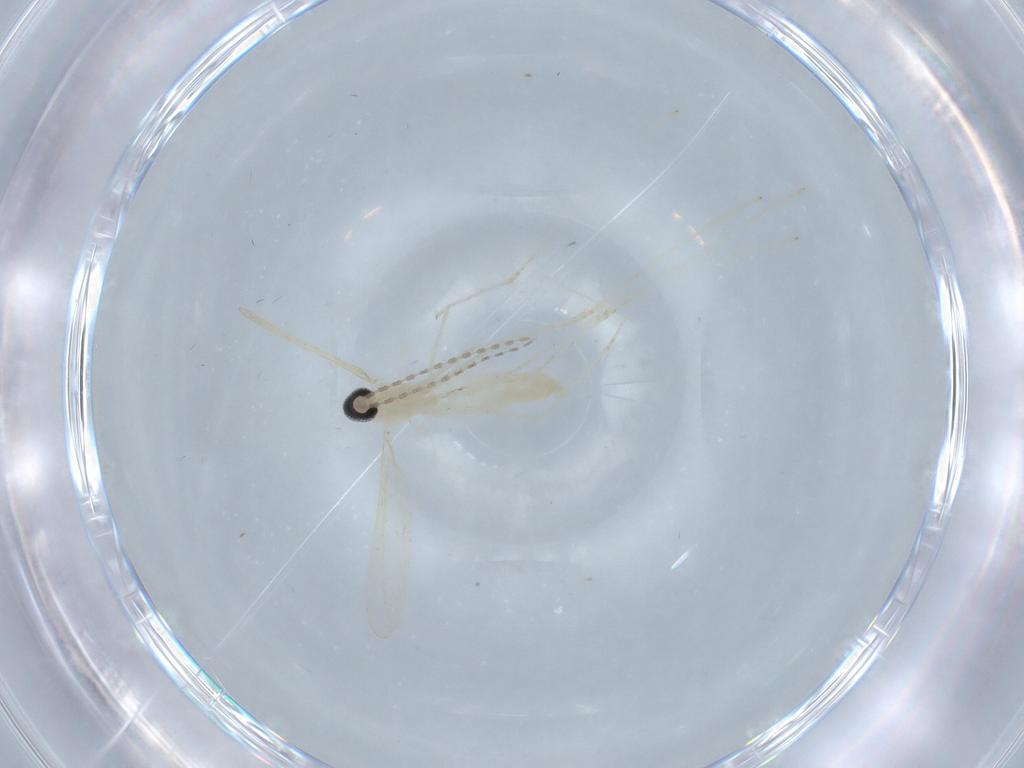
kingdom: Animalia
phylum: Arthropoda
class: Insecta
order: Diptera
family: Cecidomyiidae
